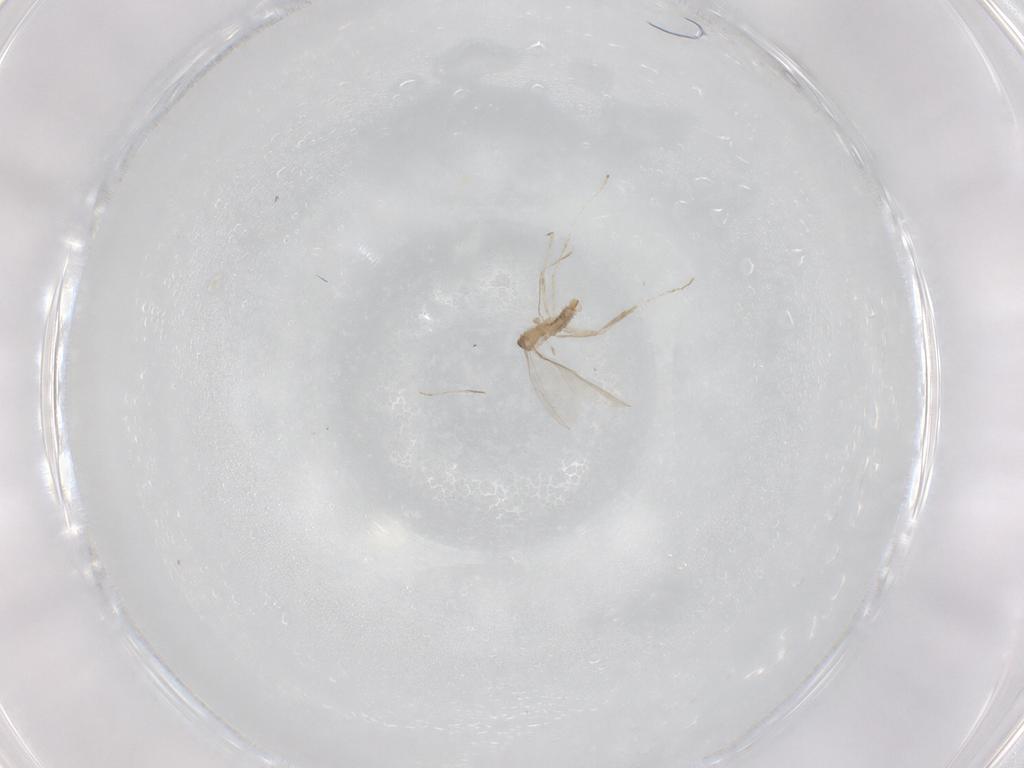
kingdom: Animalia
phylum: Arthropoda
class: Insecta
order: Diptera
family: Cecidomyiidae
